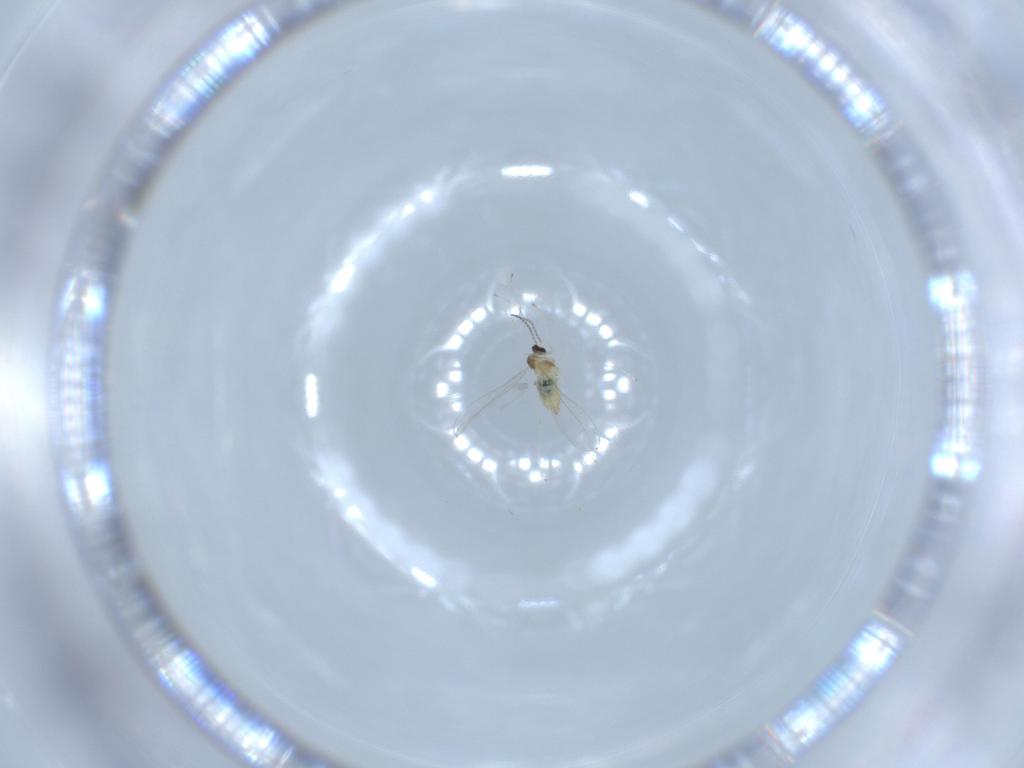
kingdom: Animalia
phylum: Arthropoda
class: Insecta
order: Diptera
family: Cecidomyiidae
